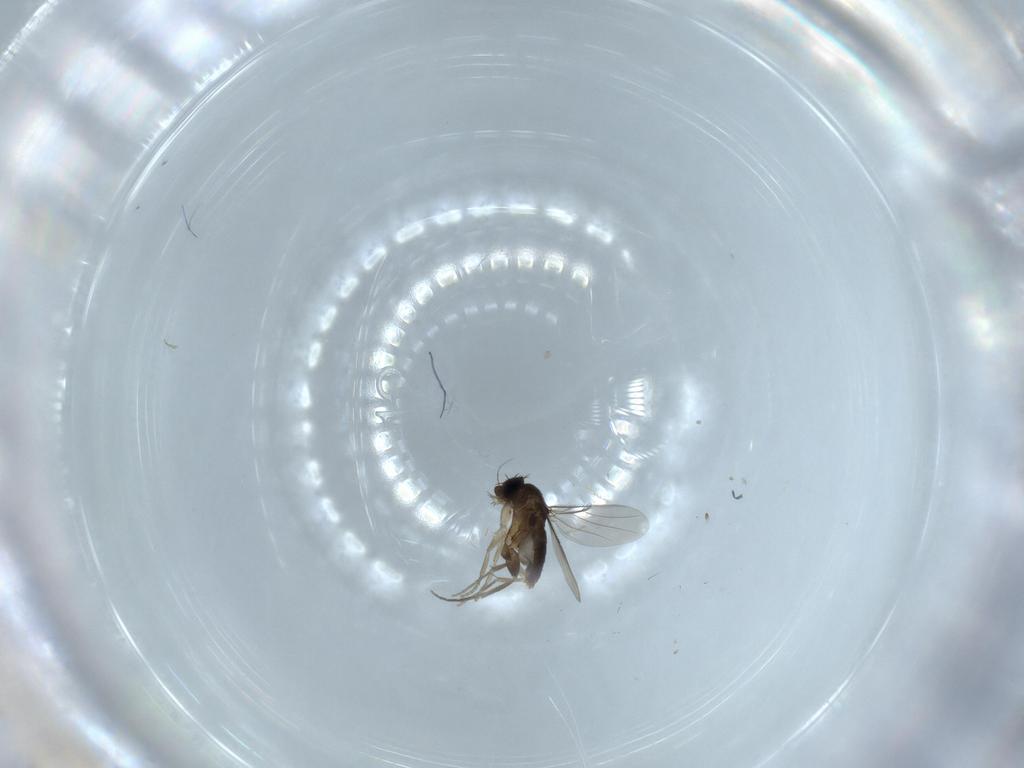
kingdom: Animalia
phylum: Arthropoda
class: Insecta
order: Diptera
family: Phoridae
